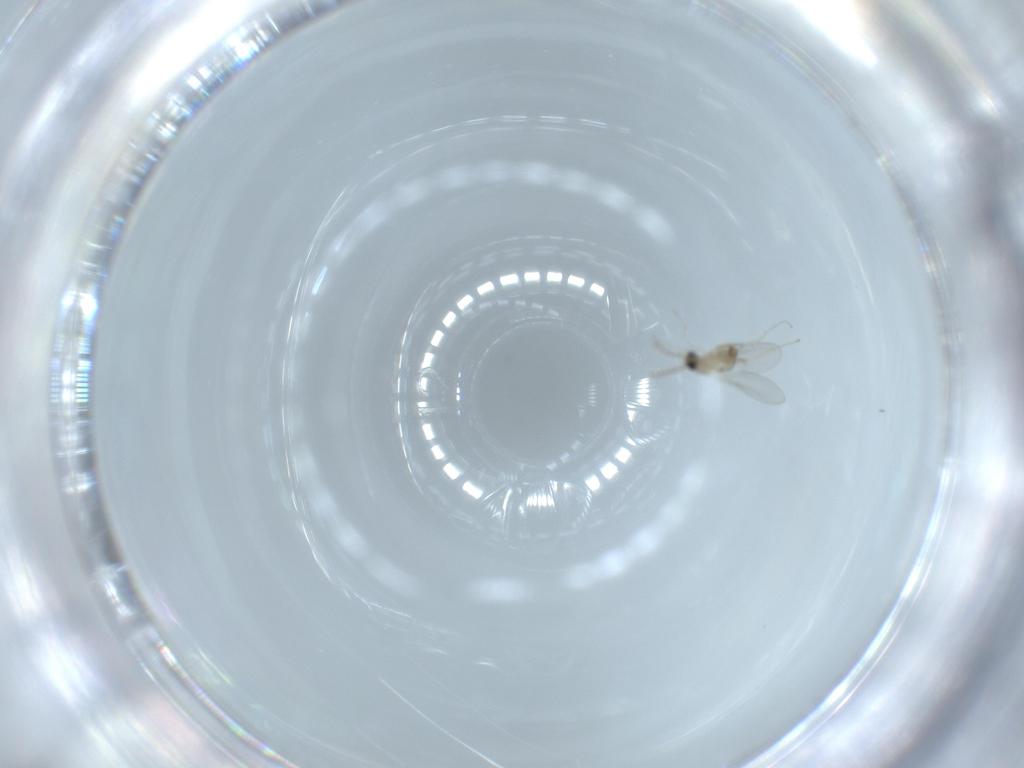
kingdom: Animalia
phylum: Arthropoda
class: Insecta
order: Diptera
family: Cecidomyiidae
